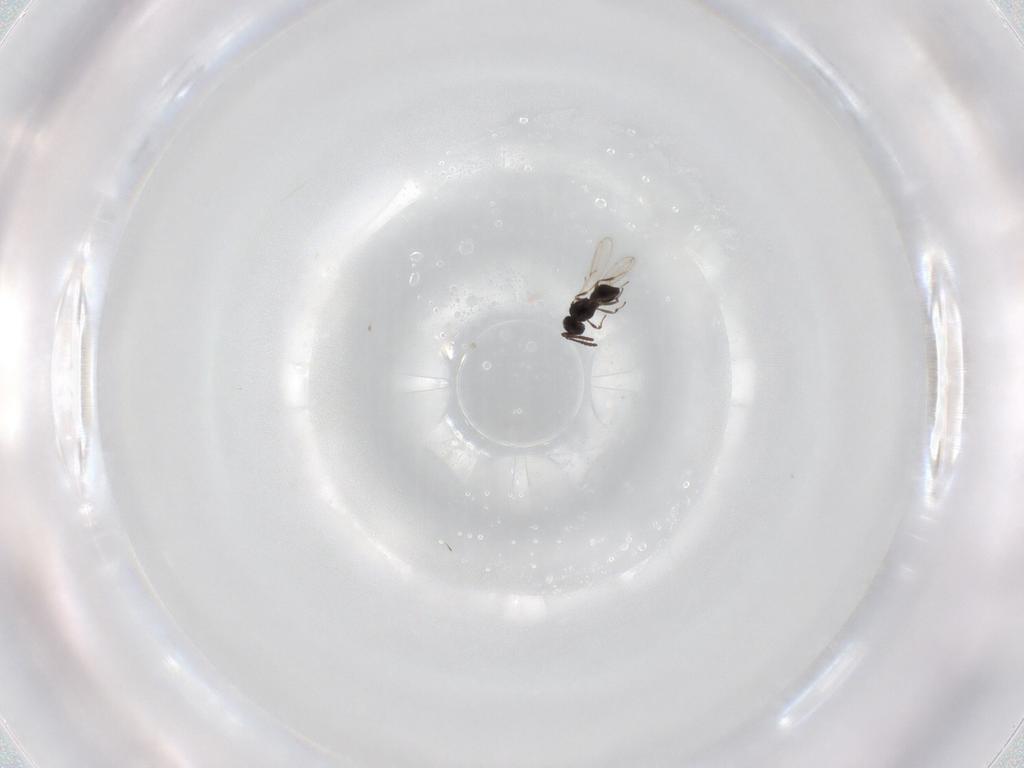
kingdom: Animalia
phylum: Arthropoda
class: Insecta
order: Hymenoptera
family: Scelionidae
